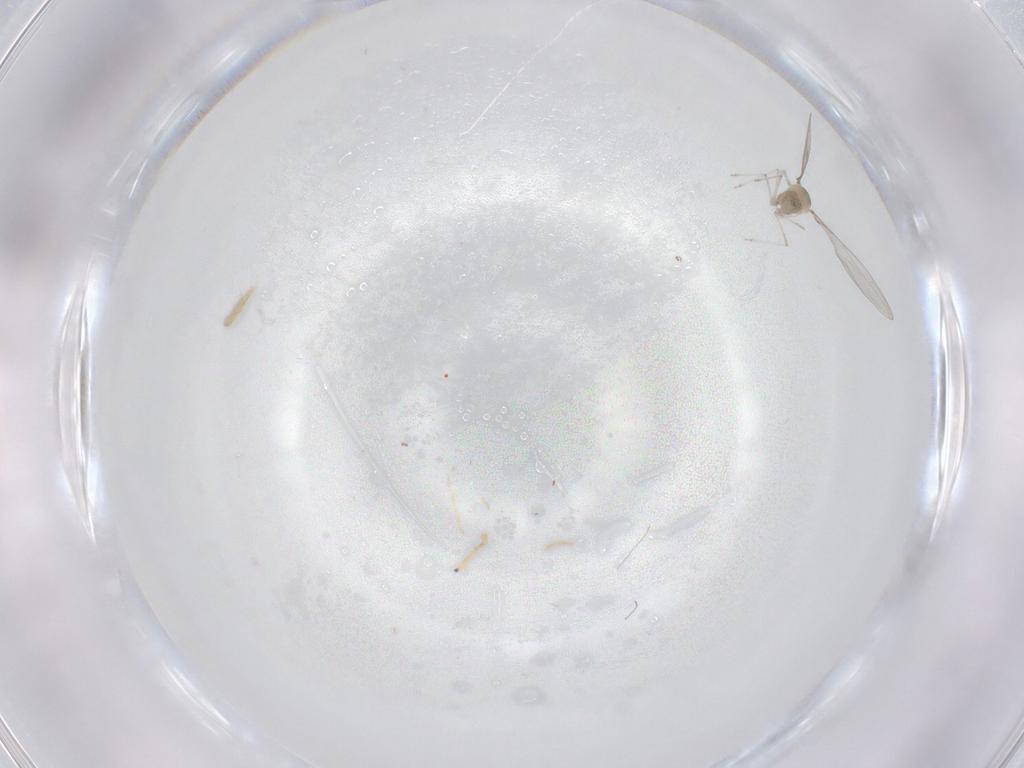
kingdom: Animalia
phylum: Arthropoda
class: Insecta
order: Diptera
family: Cecidomyiidae
